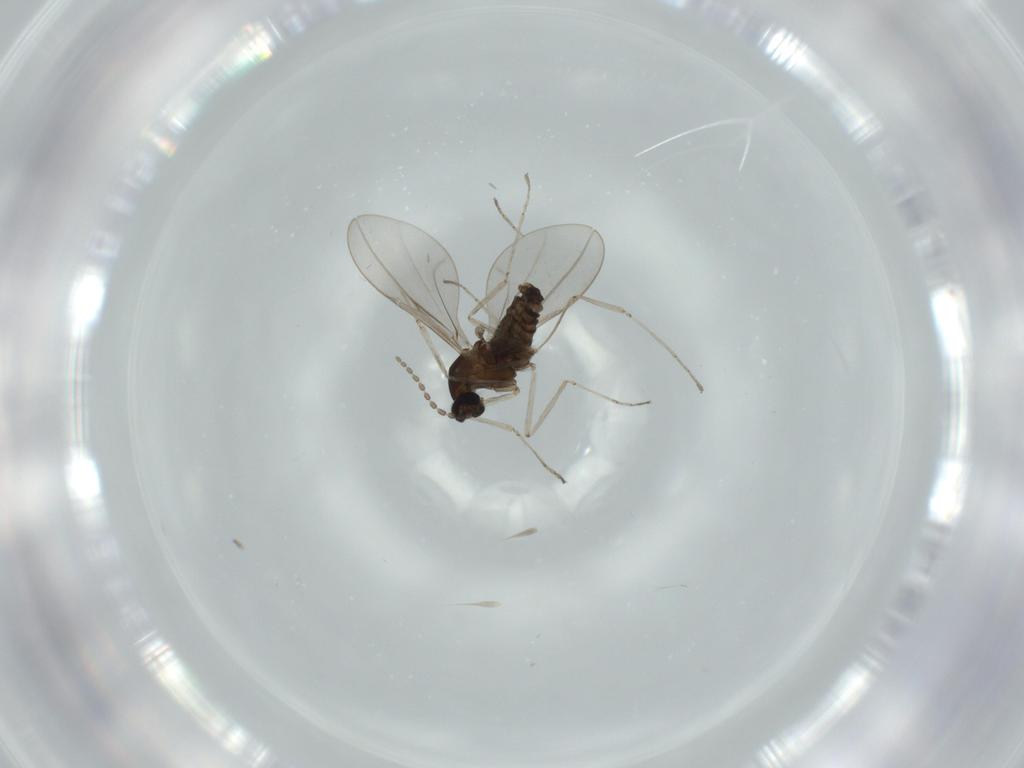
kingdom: Animalia
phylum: Arthropoda
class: Insecta
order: Diptera
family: Cecidomyiidae
